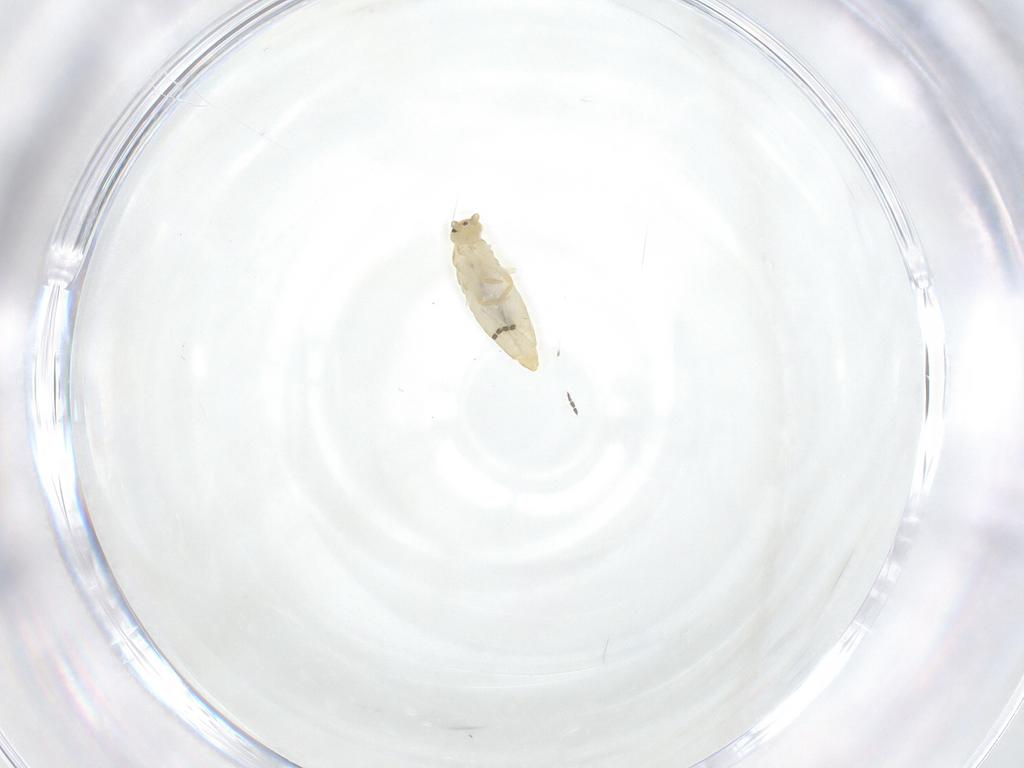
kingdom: Animalia
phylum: Arthropoda
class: Collembola
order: Entomobryomorpha
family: Entomobryidae
